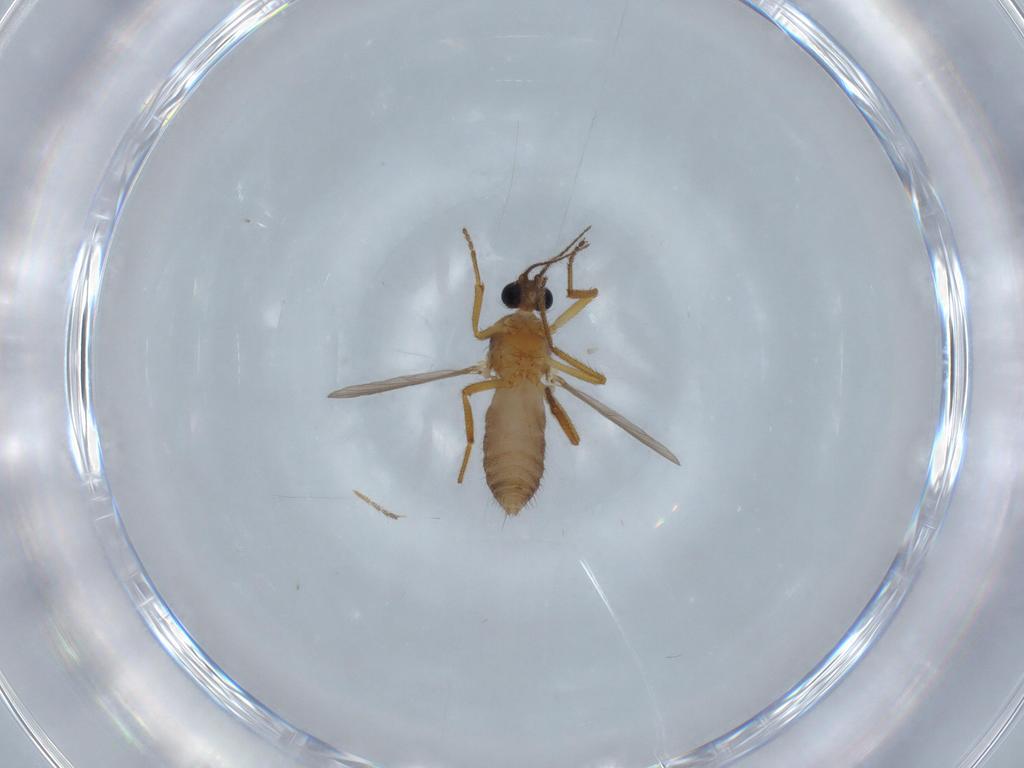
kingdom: Animalia
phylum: Arthropoda
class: Insecta
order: Diptera
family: Ceratopogonidae
